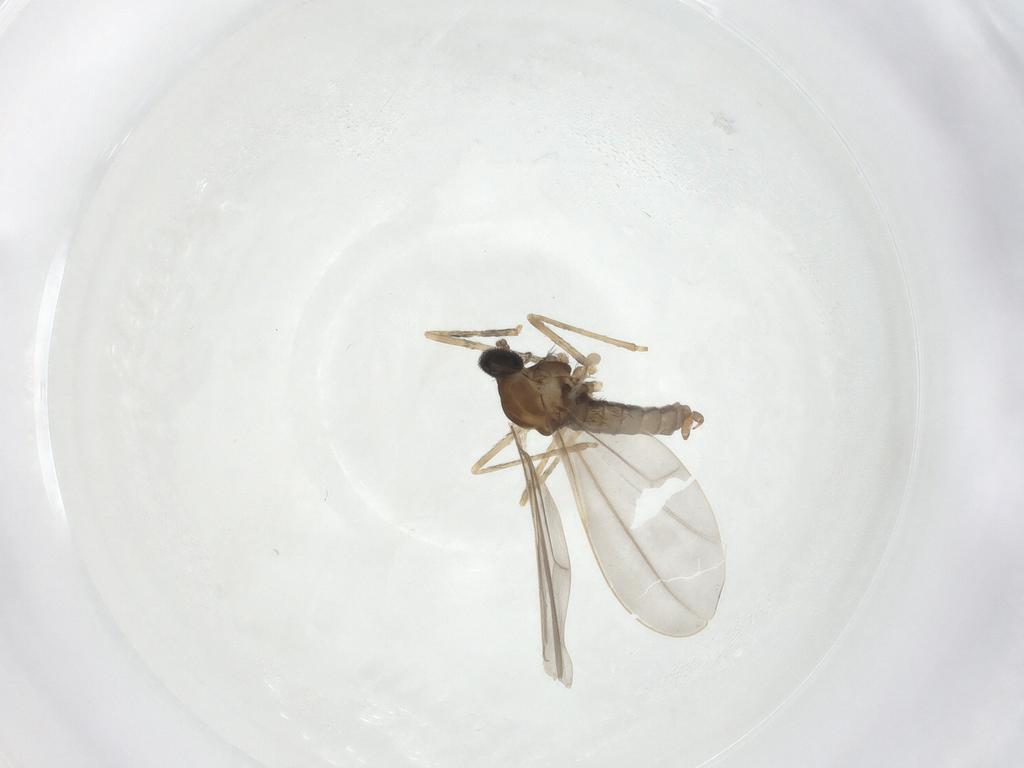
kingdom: Animalia
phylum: Arthropoda
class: Insecta
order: Diptera
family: Cecidomyiidae
